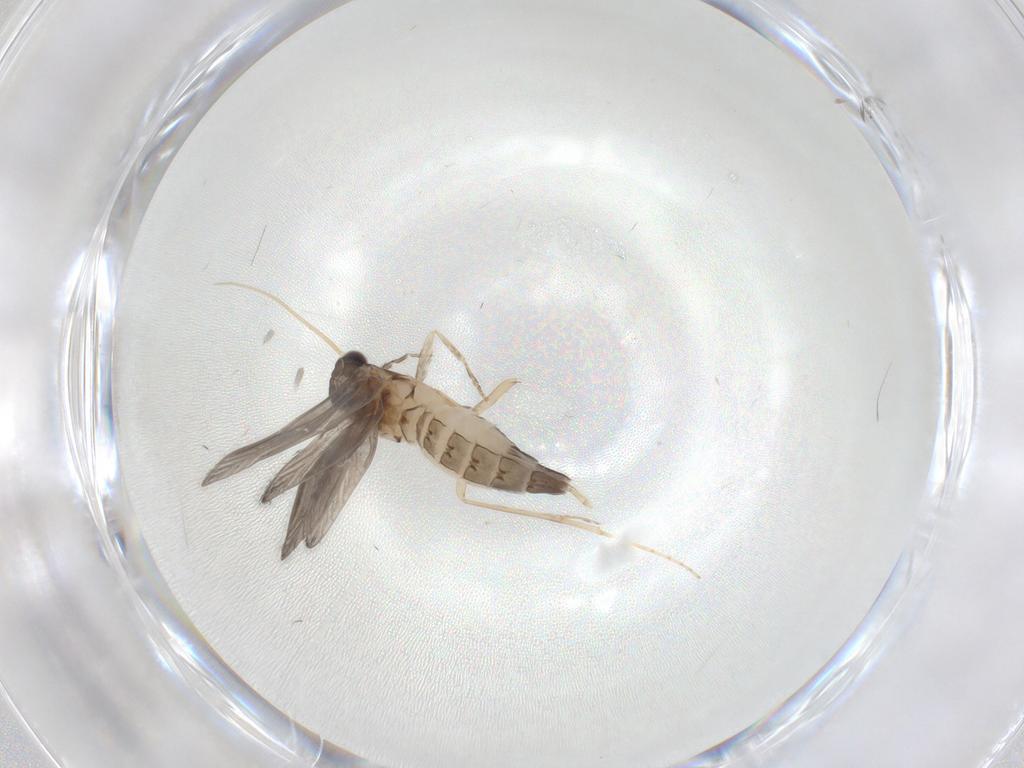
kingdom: Animalia
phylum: Arthropoda
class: Insecta
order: Trichoptera
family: Hydroptilidae
